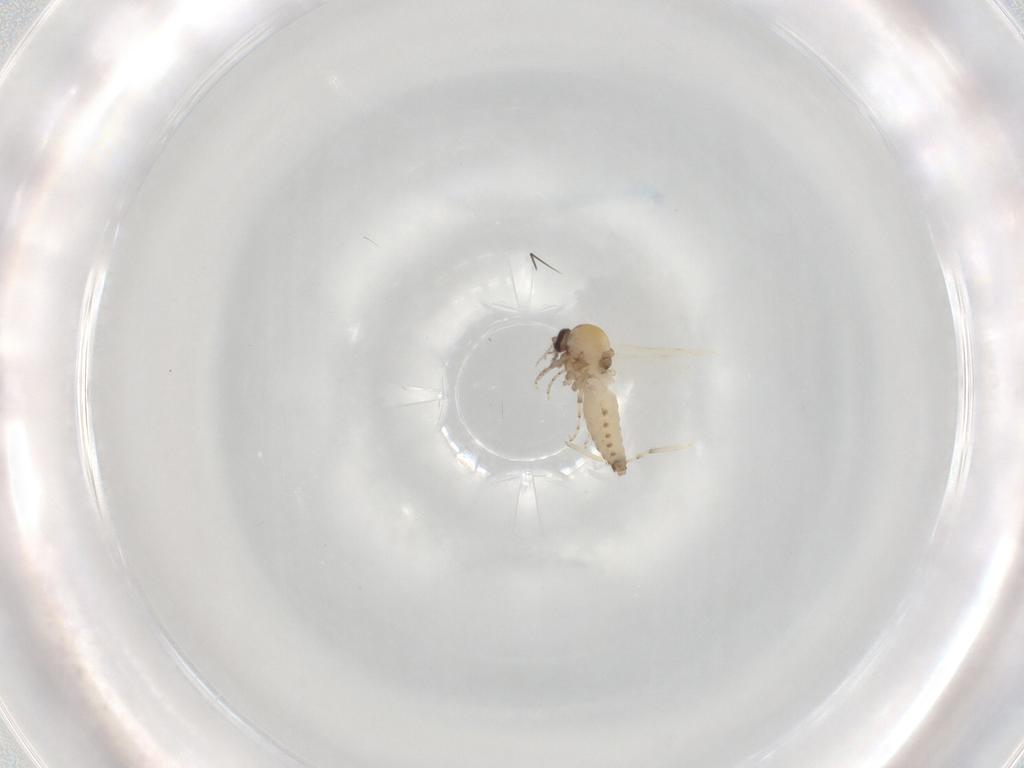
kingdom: Animalia
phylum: Arthropoda
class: Insecta
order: Diptera
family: Ceratopogonidae
